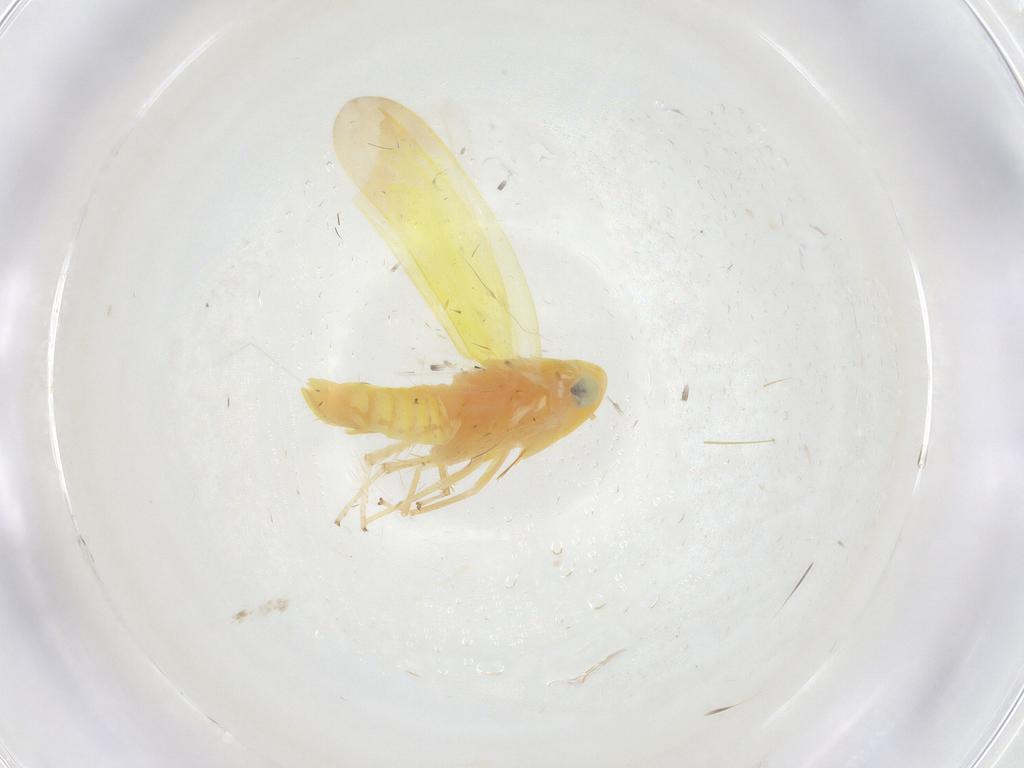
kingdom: Animalia
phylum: Arthropoda
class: Insecta
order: Hemiptera
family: Cicadellidae
